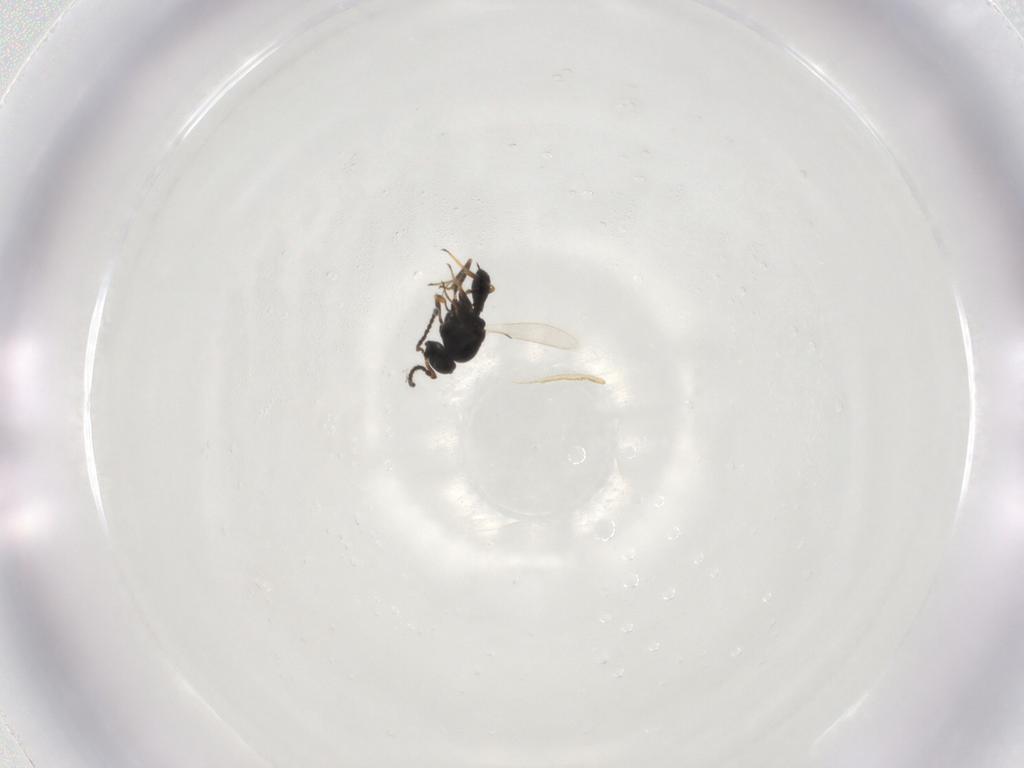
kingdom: Animalia
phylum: Arthropoda
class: Insecta
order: Hymenoptera
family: Scelionidae
